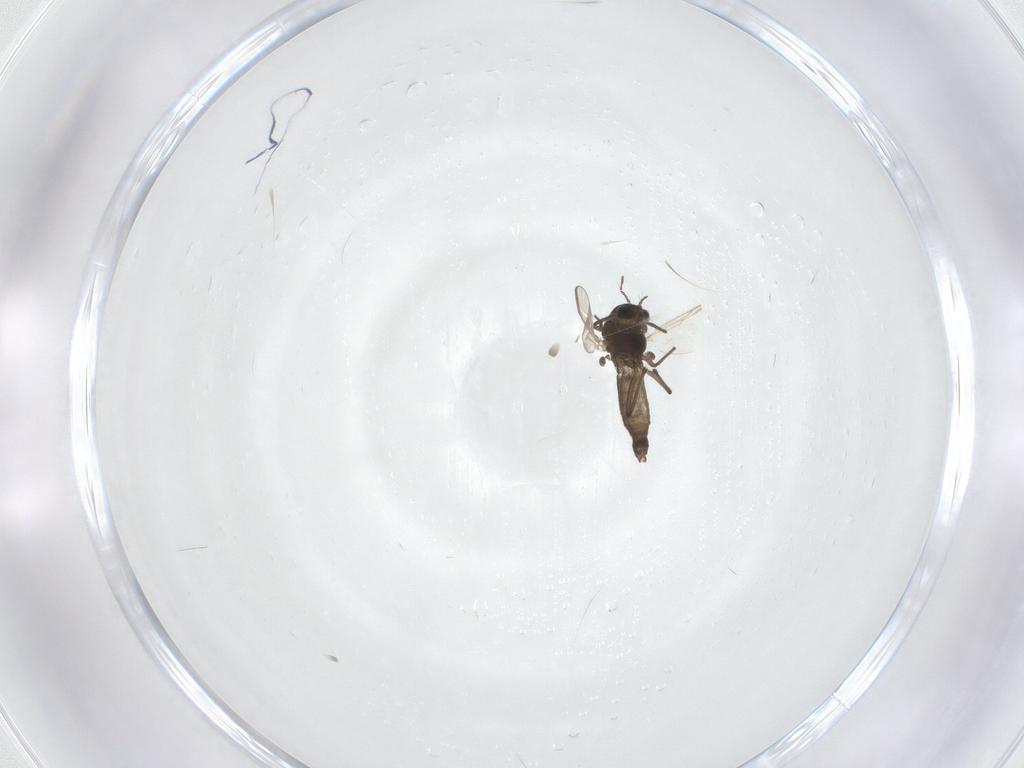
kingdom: Animalia
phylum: Arthropoda
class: Insecta
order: Diptera
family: Chironomidae
